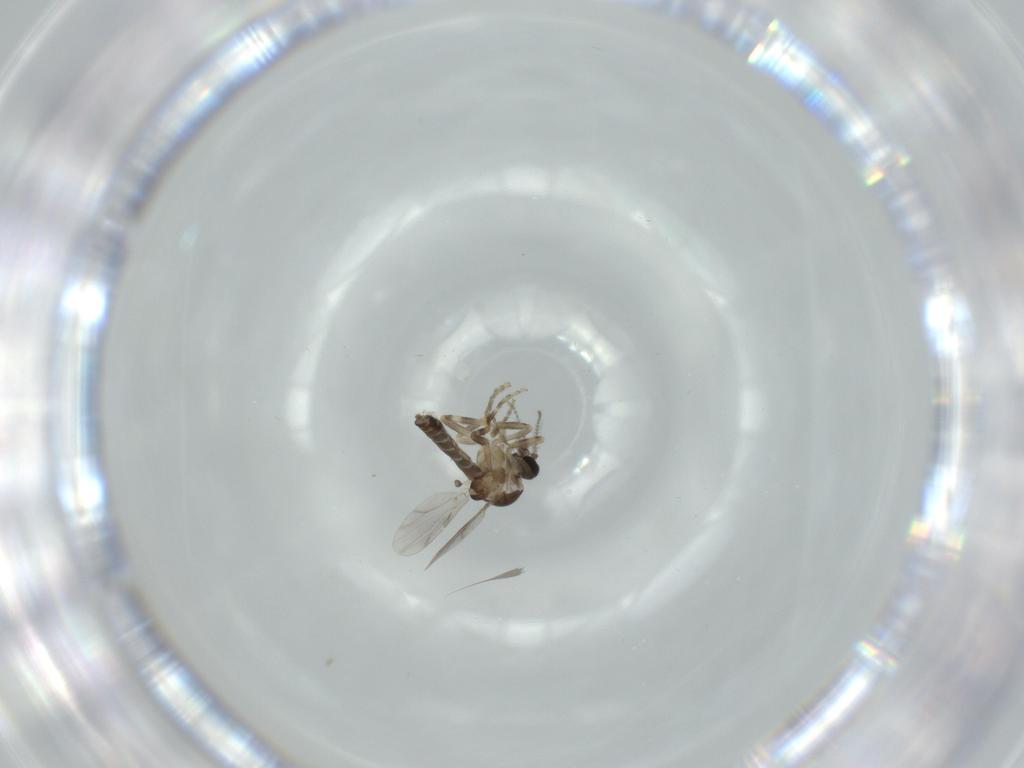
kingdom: Animalia
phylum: Arthropoda
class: Insecta
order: Diptera
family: Ceratopogonidae
